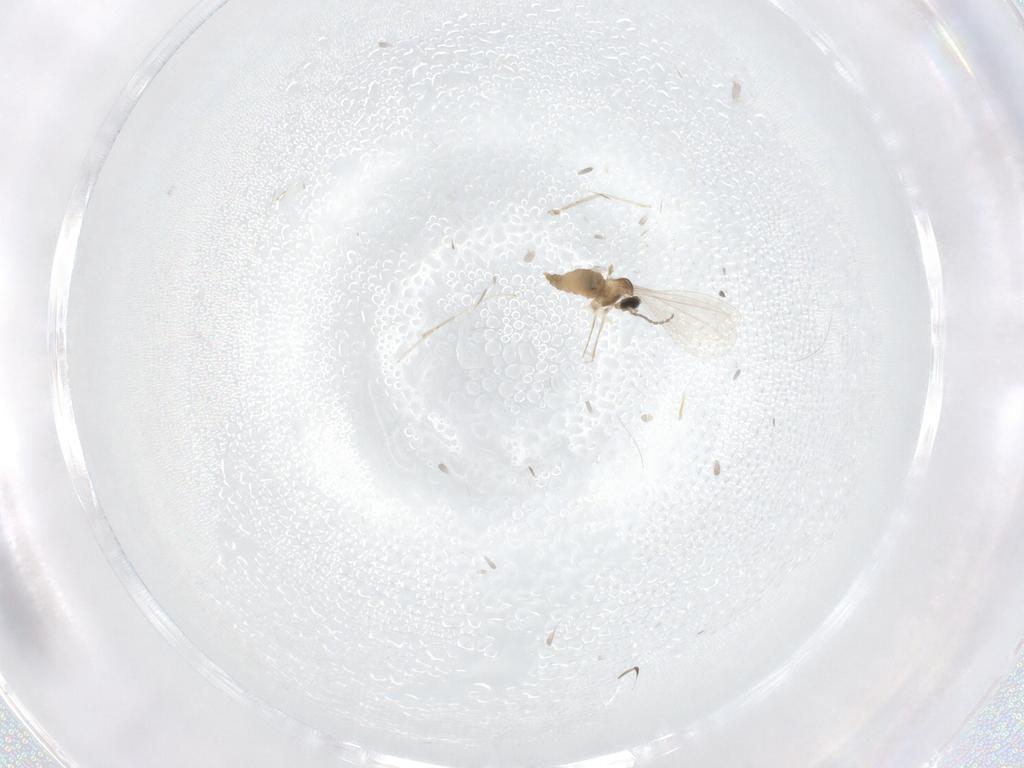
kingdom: Animalia
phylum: Arthropoda
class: Insecta
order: Diptera
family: Cecidomyiidae
